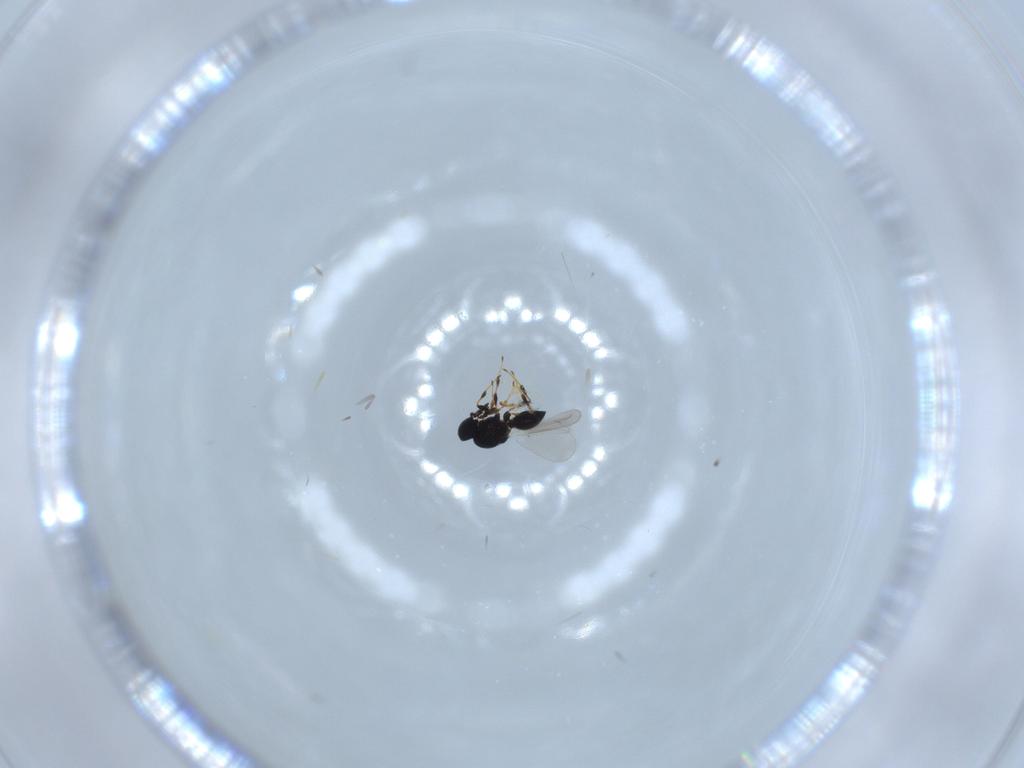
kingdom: Animalia
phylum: Arthropoda
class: Insecta
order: Hymenoptera
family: Platygastridae
